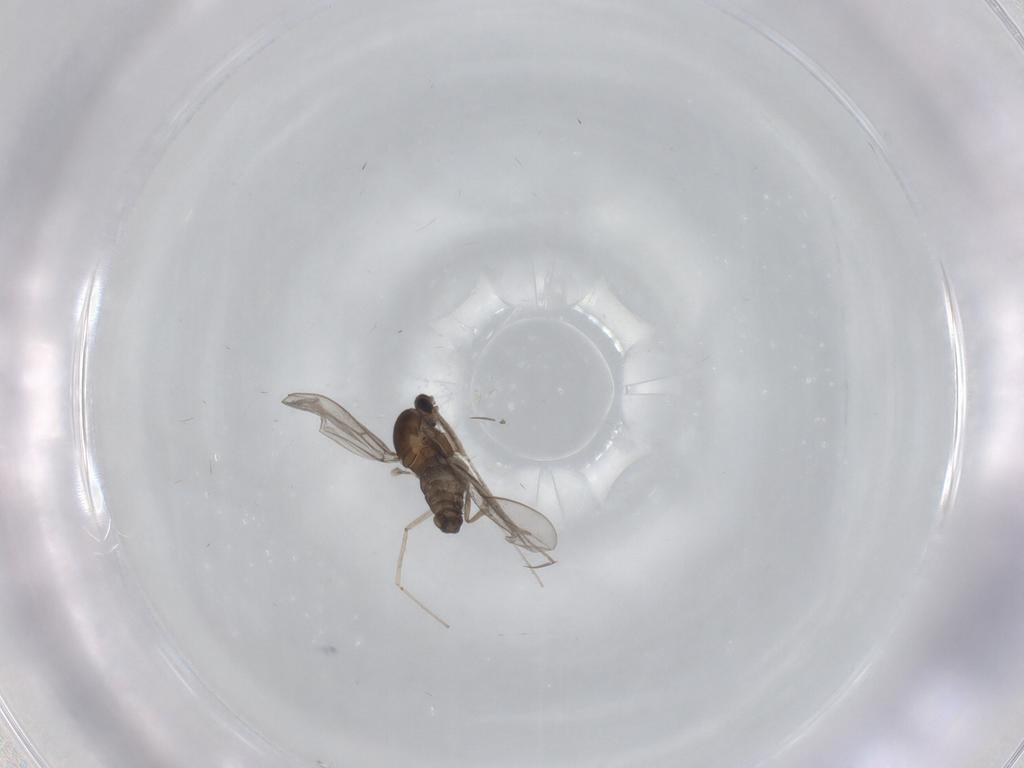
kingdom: Animalia
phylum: Arthropoda
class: Insecta
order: Diptera
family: Cecidomyiidae
